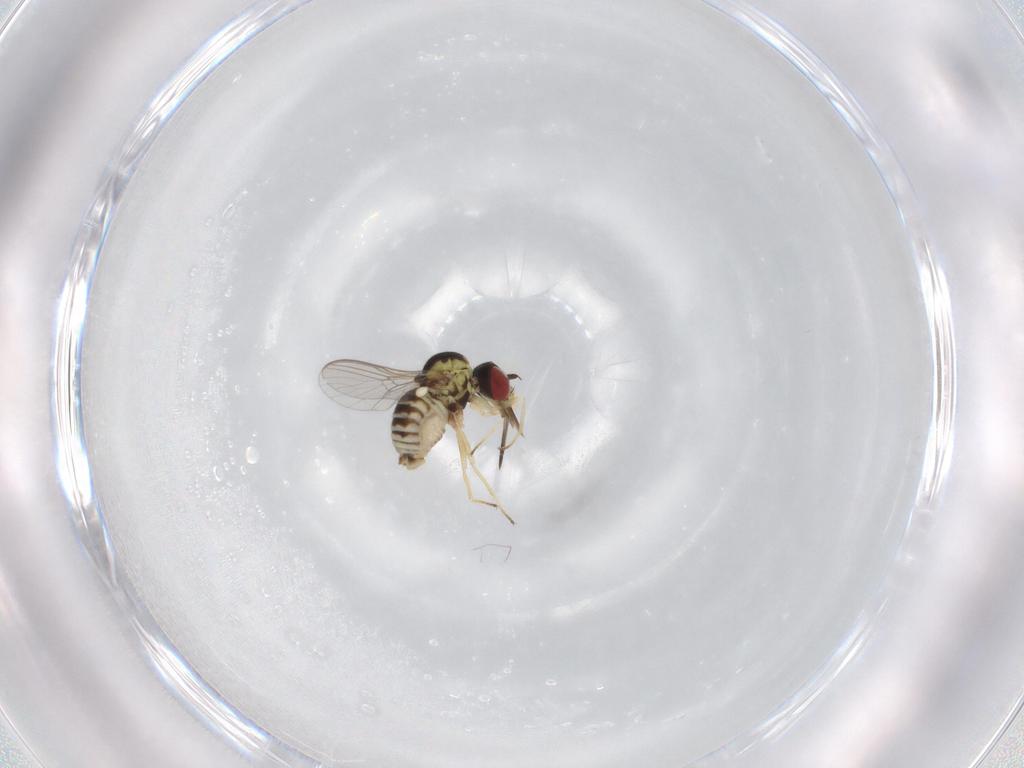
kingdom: Animalia
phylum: Arthropoda
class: Insecta
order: Diptera
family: Bombyliidae
